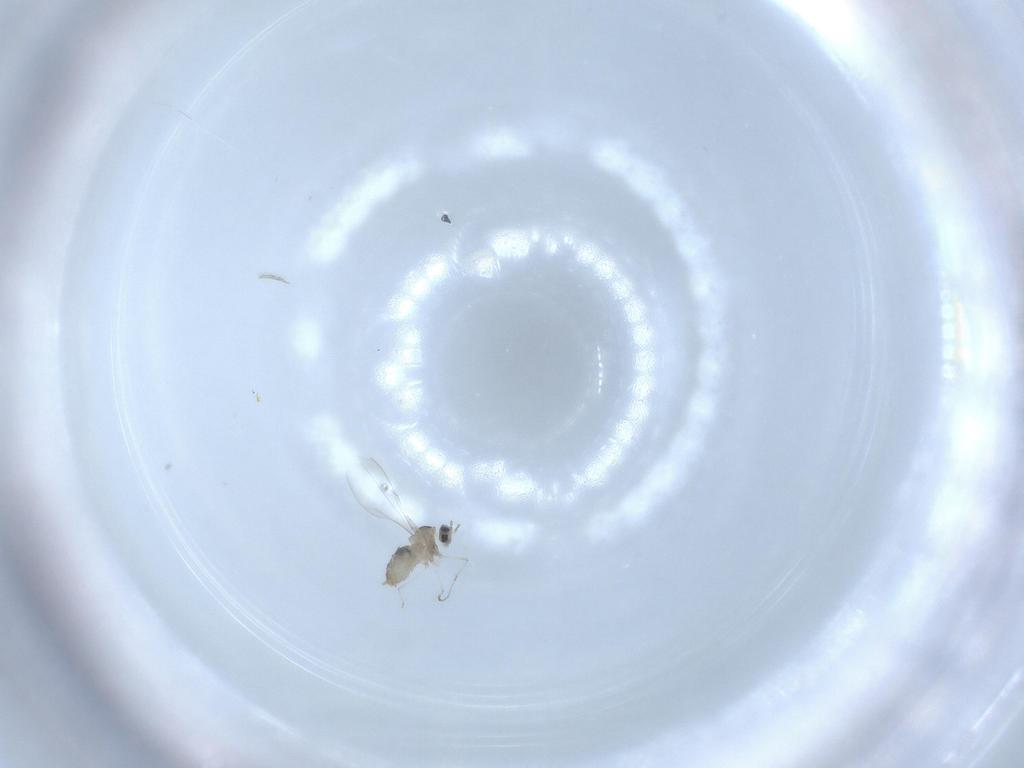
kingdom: Animalia
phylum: Arthropoda
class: Insecta
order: Diptera
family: Cecidomyiidae
